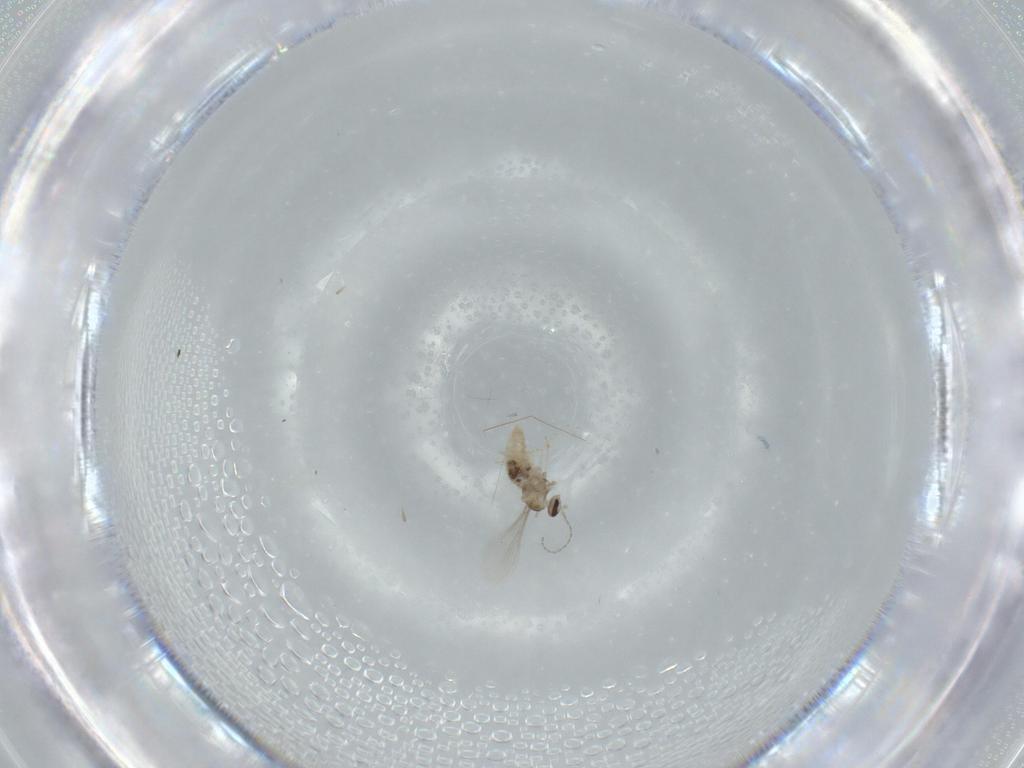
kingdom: Animalia
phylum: Arthropoda
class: Insecta
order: Diptera
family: Cecidomyiidae
